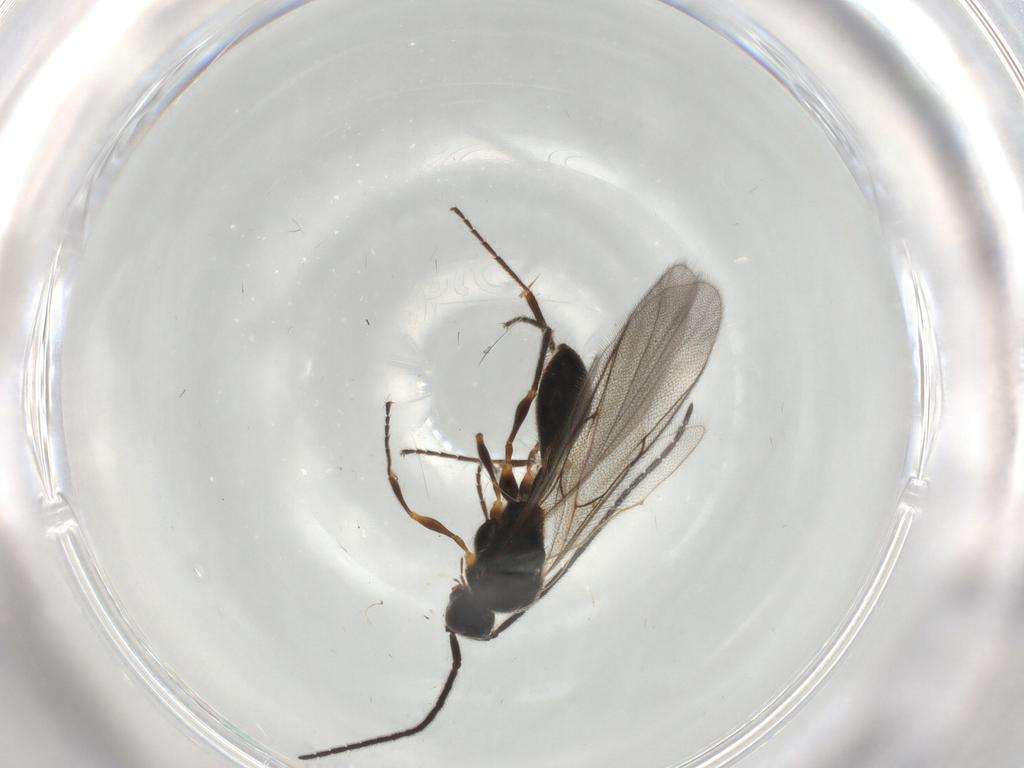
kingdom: Animalia
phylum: Arthropoda
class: Insecta
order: Hymenoptera
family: Diapriidae
